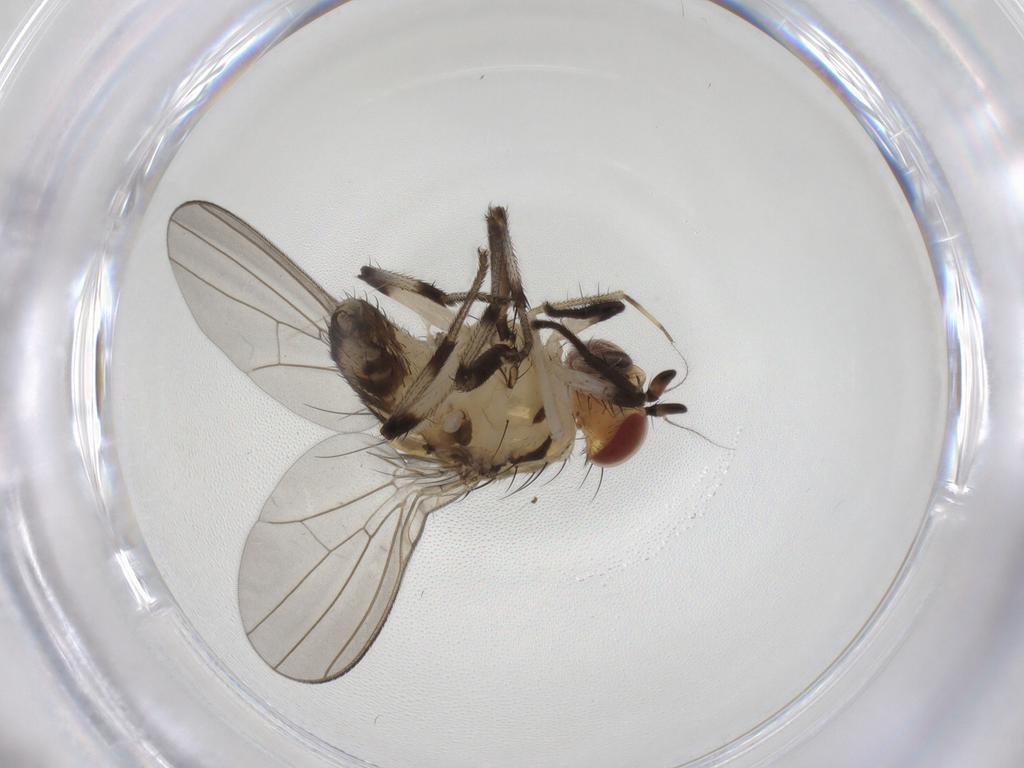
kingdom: Animalia
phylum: Arthropoda
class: Insecta
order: Diptera
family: Lauxaniidae
